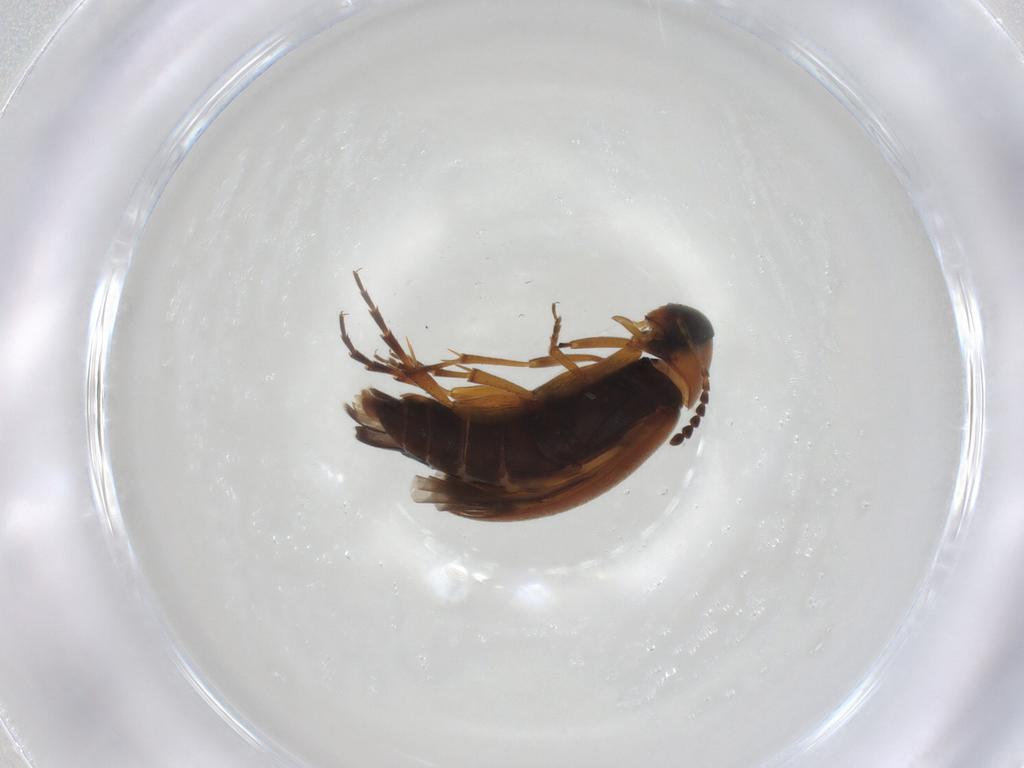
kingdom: Animalia
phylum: Arthropoda
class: Insecta
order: Coleoptera
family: Scraptiidae
